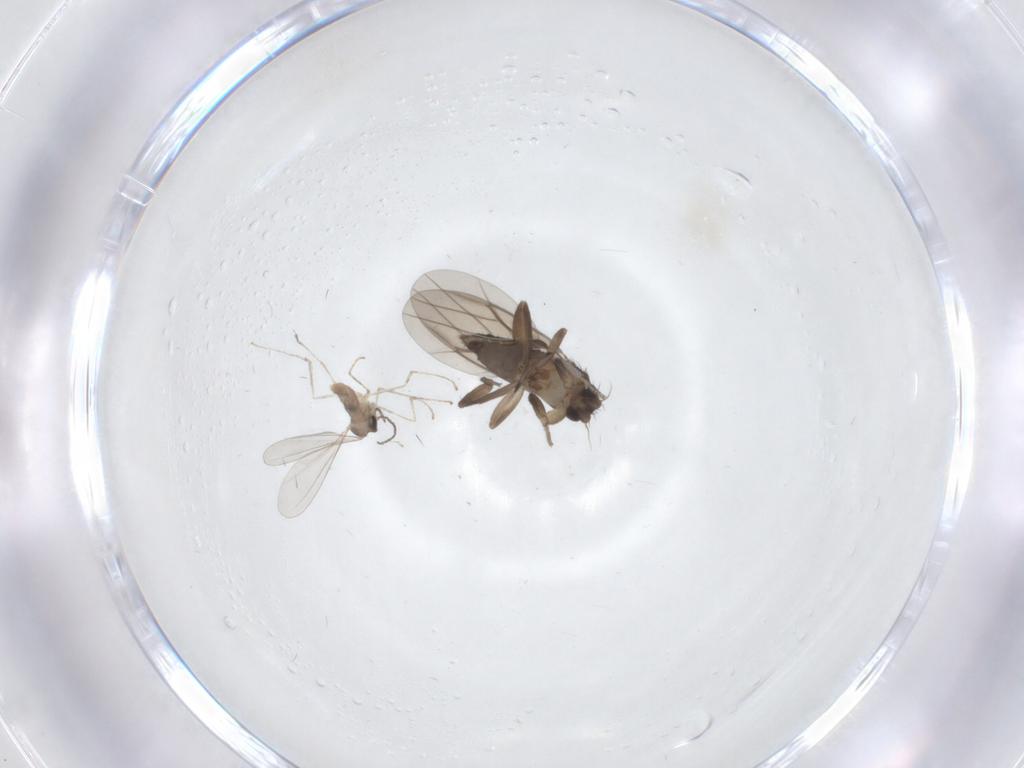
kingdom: Animalia
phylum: Arthropoda
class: Insecta
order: Diptera
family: Cecidomyiidae
